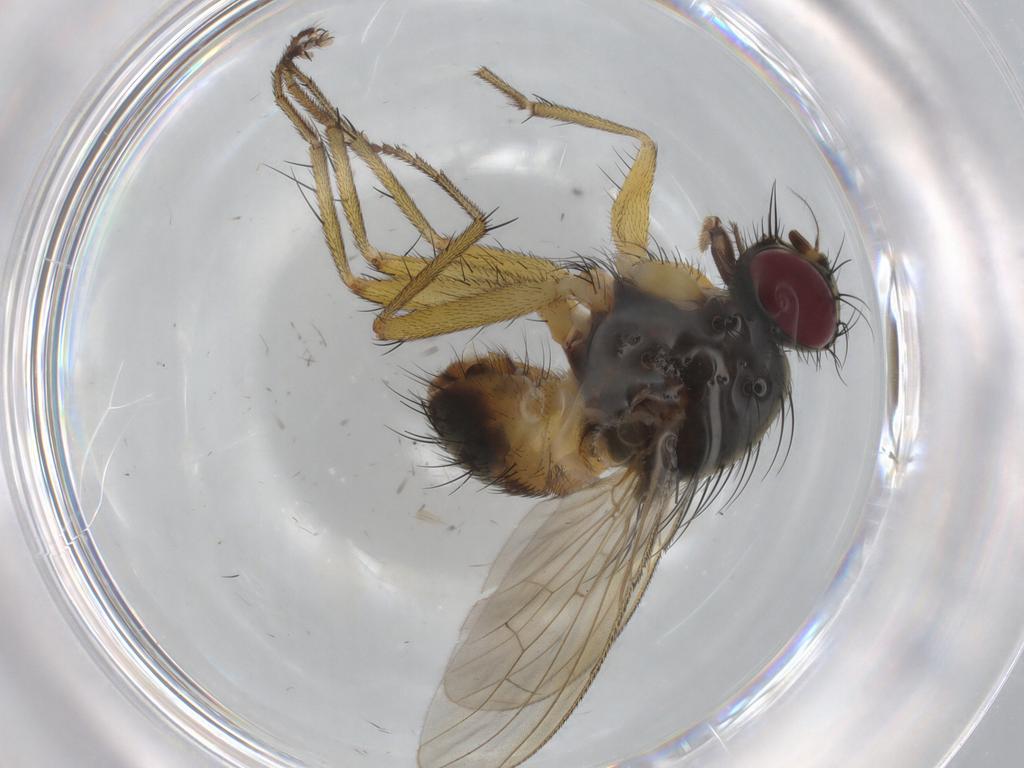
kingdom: Animalia
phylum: Arthropoda
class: Insecta
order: Diptera
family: Muscidae
